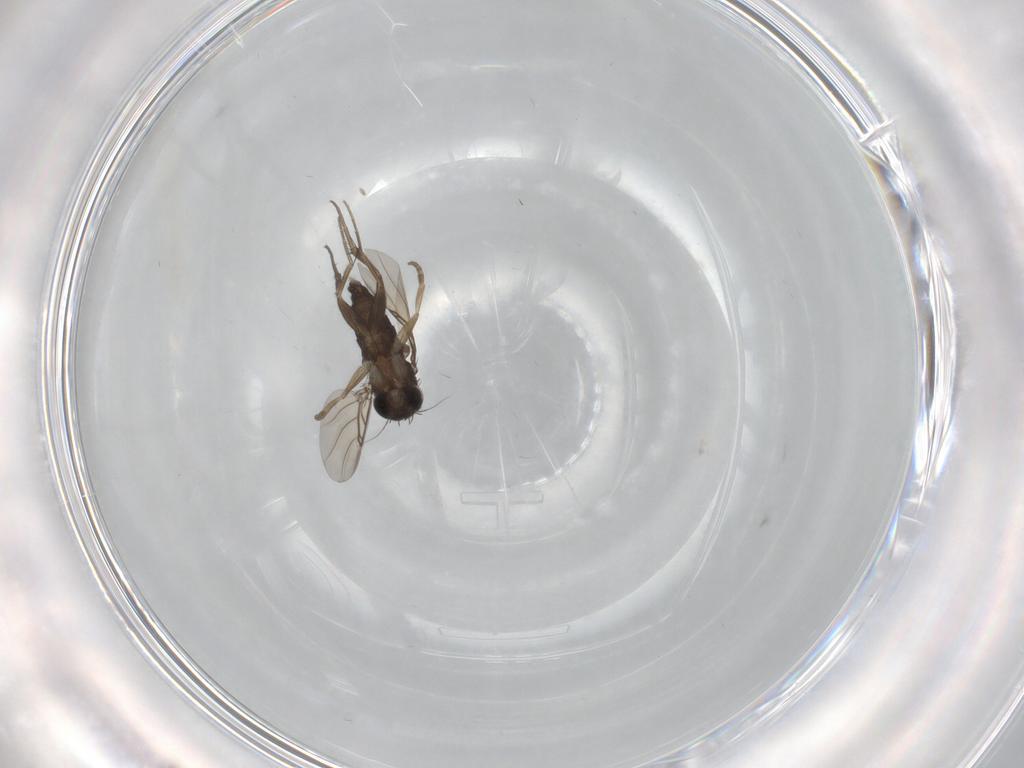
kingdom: Animalia
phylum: Arthropoda
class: Insecta
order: Diptera
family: Phoridae
